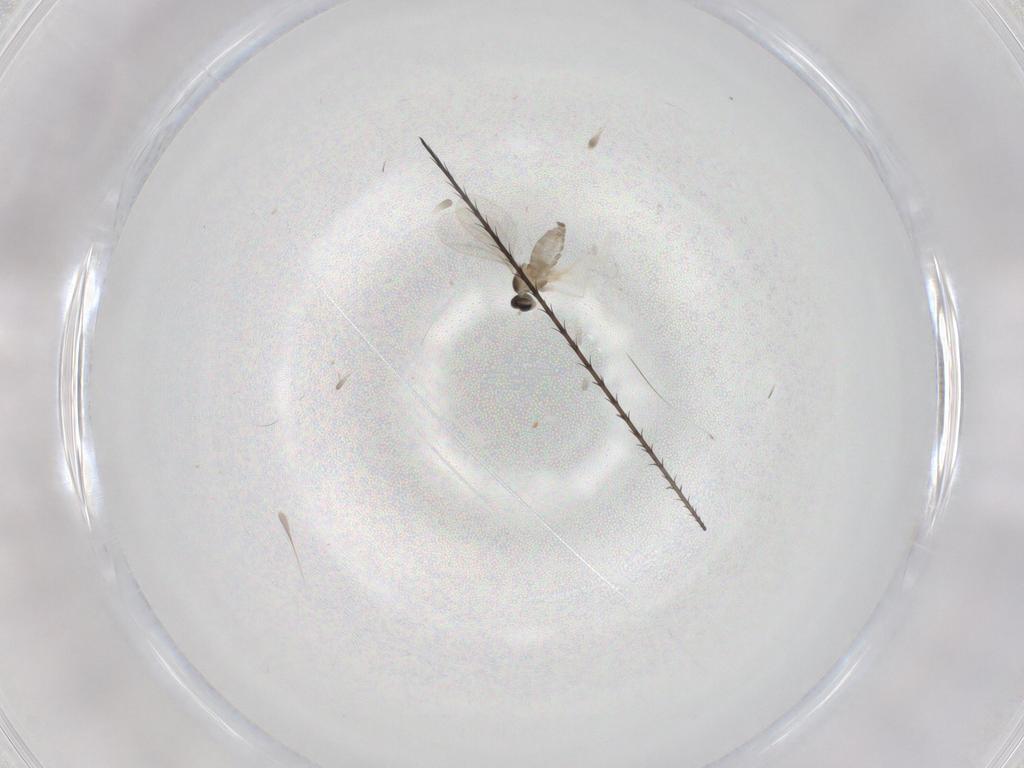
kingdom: Animalia
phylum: Arthropoda
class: Insecta
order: Diptera
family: Cecidomyiidae
